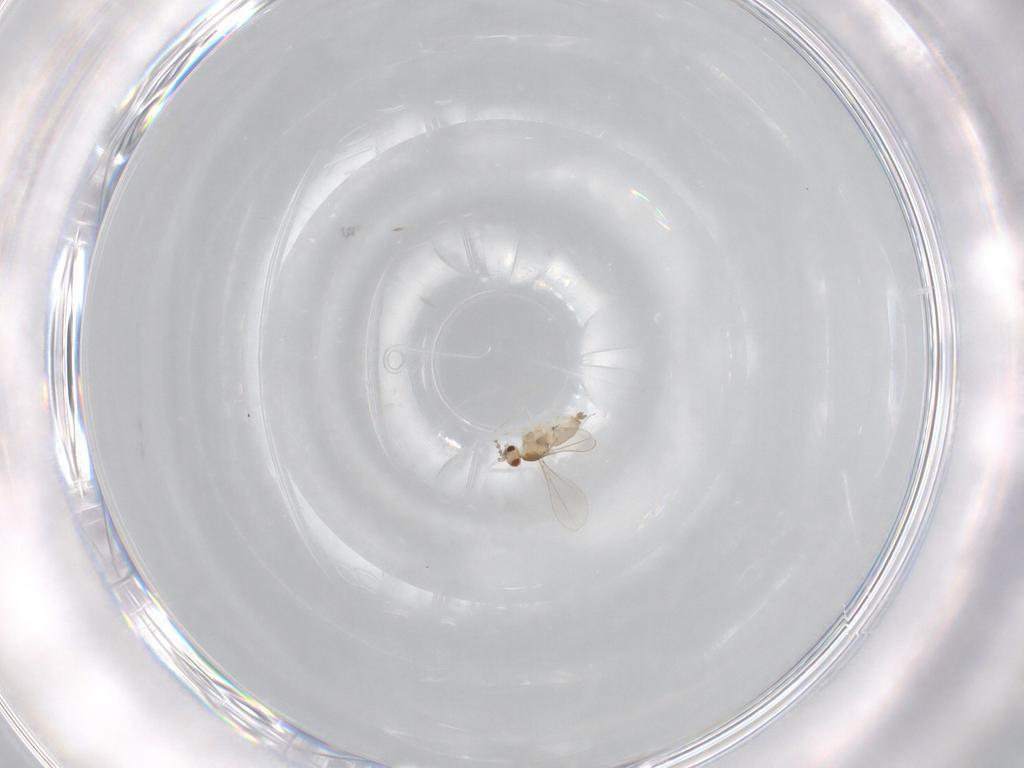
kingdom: Animalia
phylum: Arthropoda
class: Insecta
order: Diptera
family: Cecidomyiidae
